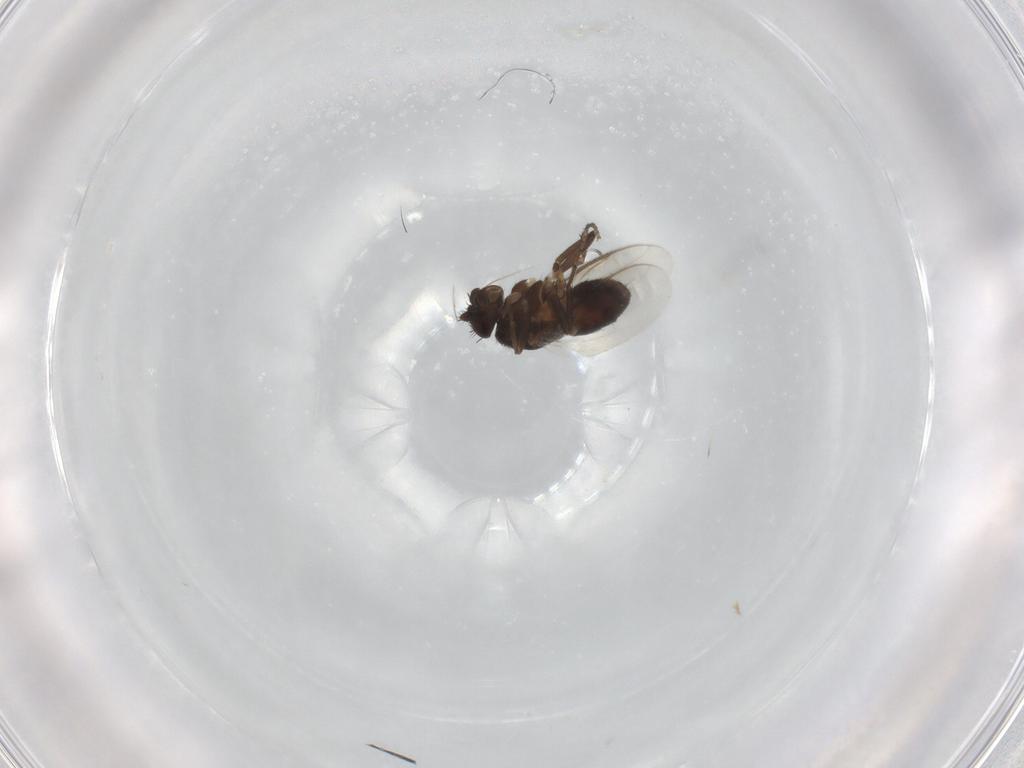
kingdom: Animalia
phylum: Arthropoda
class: Insecta
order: Diptera
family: Sphaeroceridae
